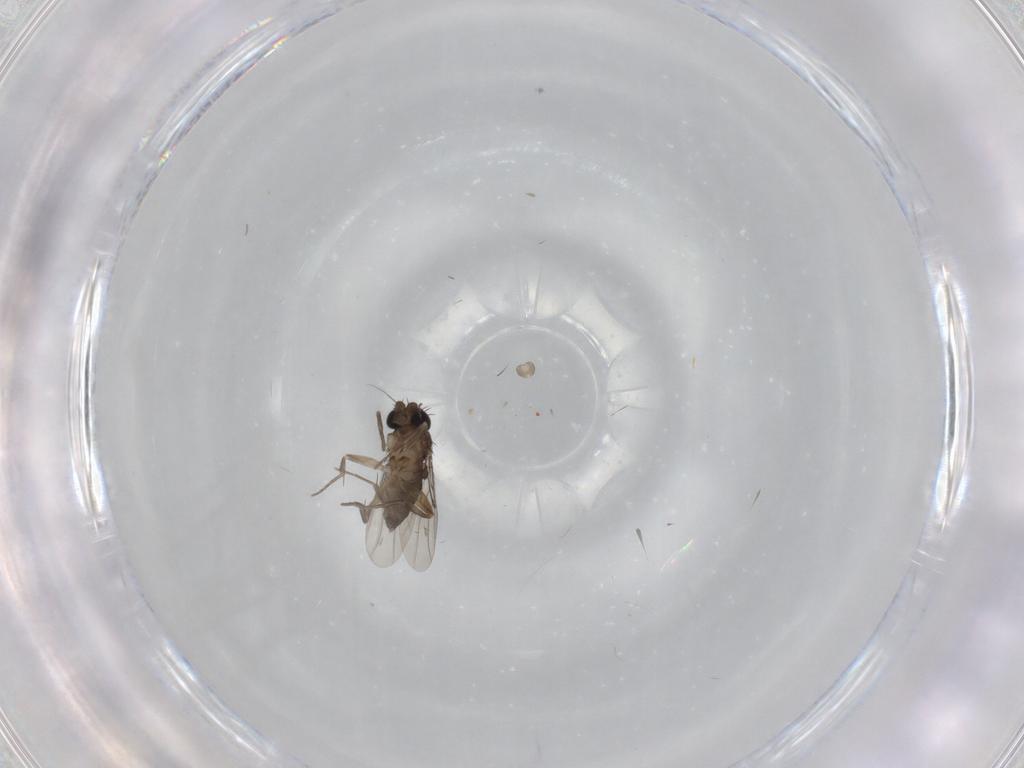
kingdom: Animalia
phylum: Arthropoda
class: Insecta
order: Diptera
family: Phoridae
